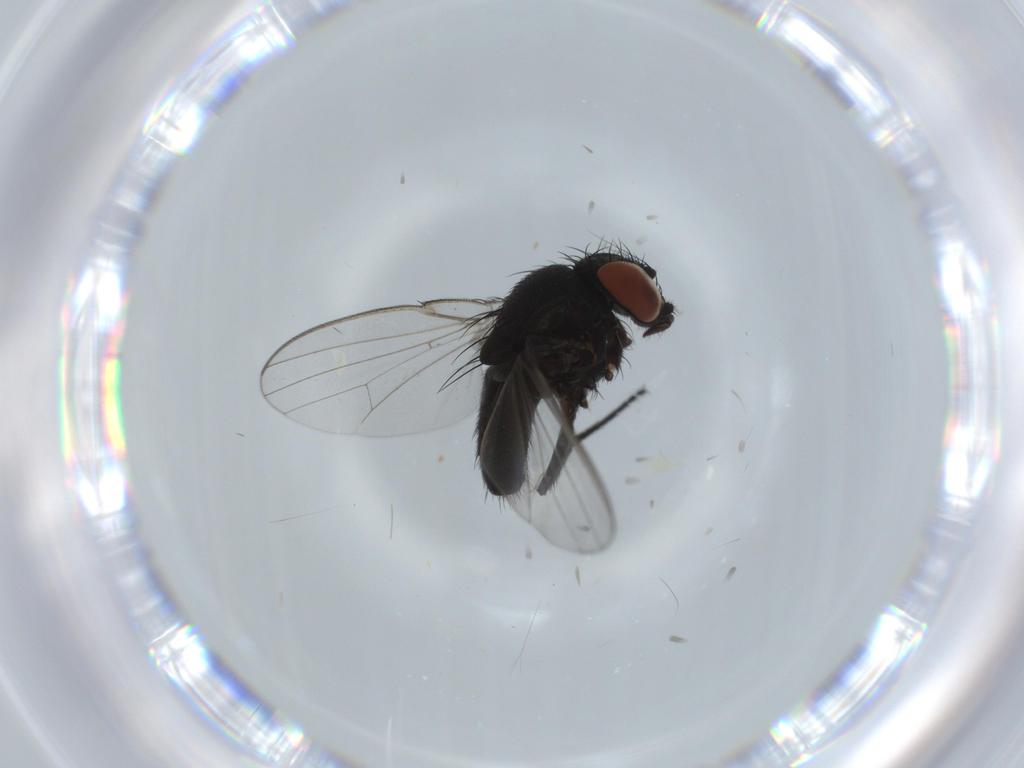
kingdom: Animalia
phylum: Arthropoda
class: Insecta
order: Diptera
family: Milichiidae
